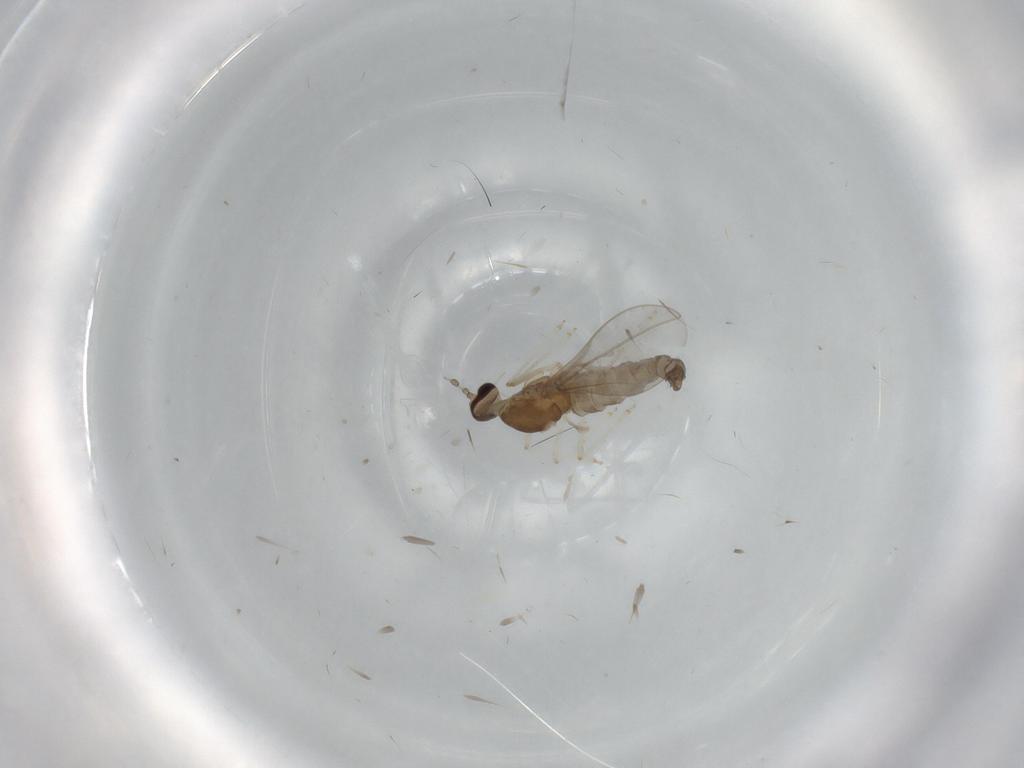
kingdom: Animalia
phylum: Arthropoda
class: Insecta
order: Diptera
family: Cecidomyiidae
